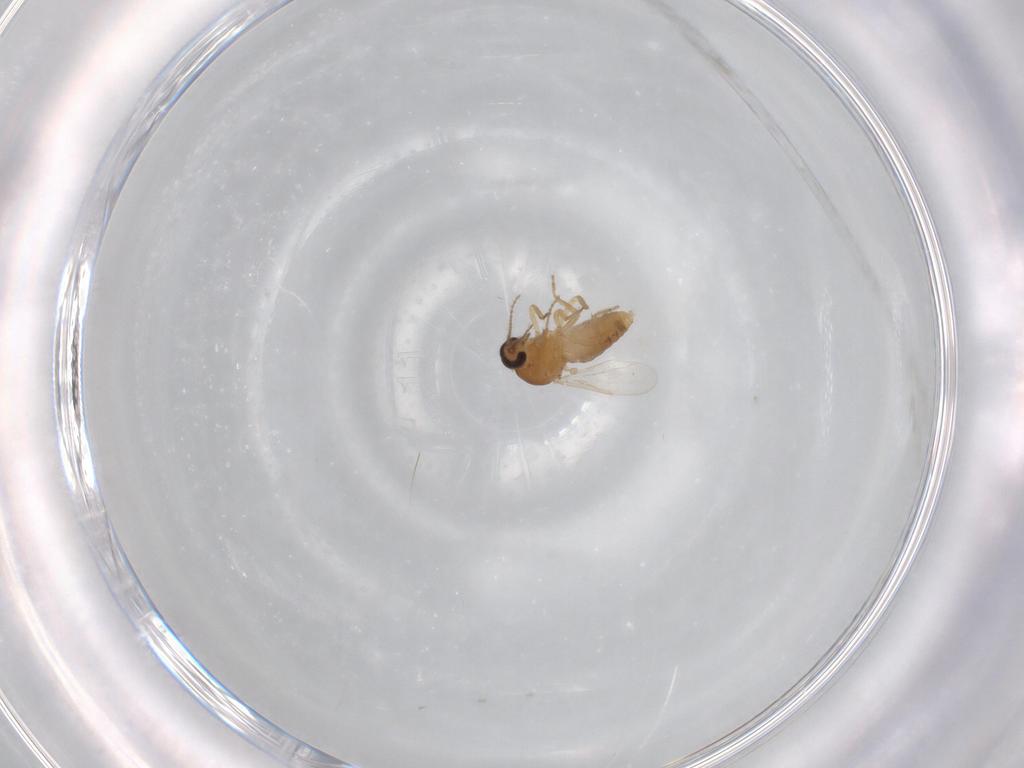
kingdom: Animalia
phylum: Arthropoda
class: Insecta
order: Diptera
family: Ceratopogonidae
